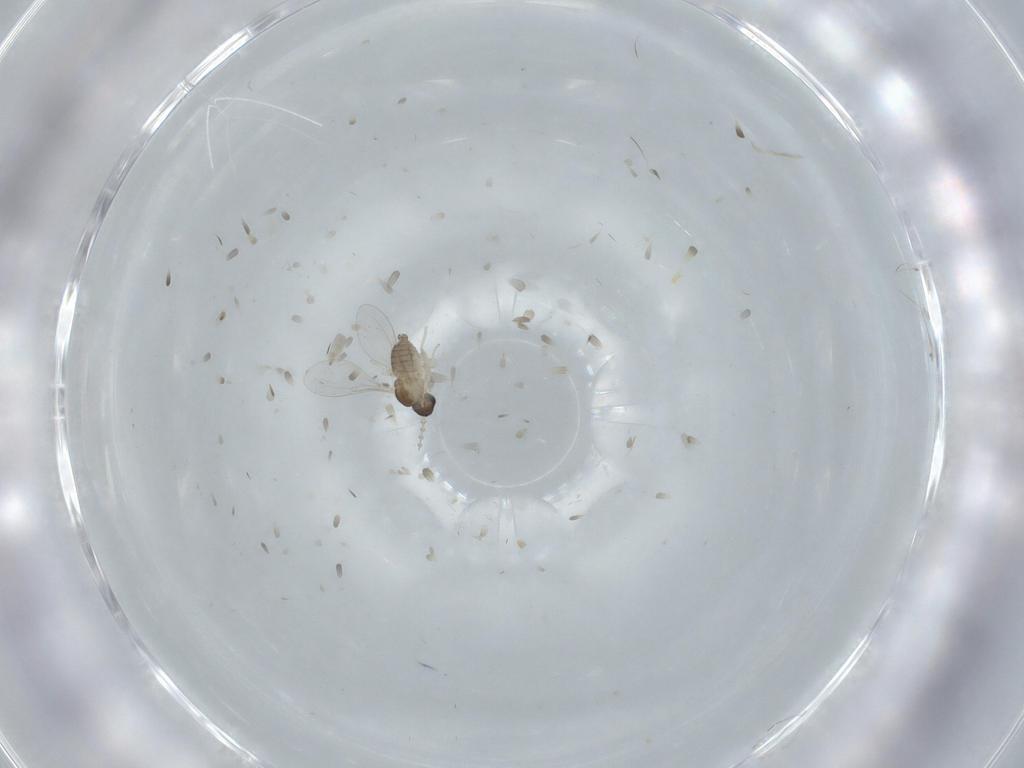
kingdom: Animalia
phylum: Arthropoda
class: Insecta
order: Diptera
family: Cecidomyiidae
